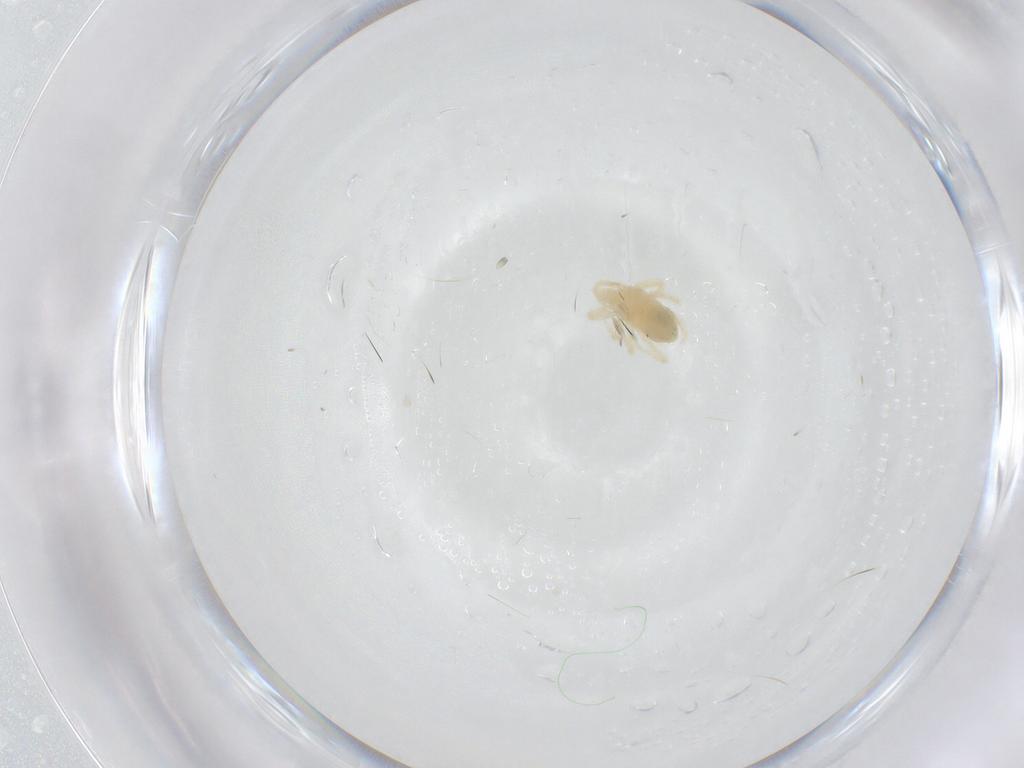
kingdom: Animalia
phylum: Arthropoda
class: Arachnida
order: Trombidiformes
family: Anystidae
